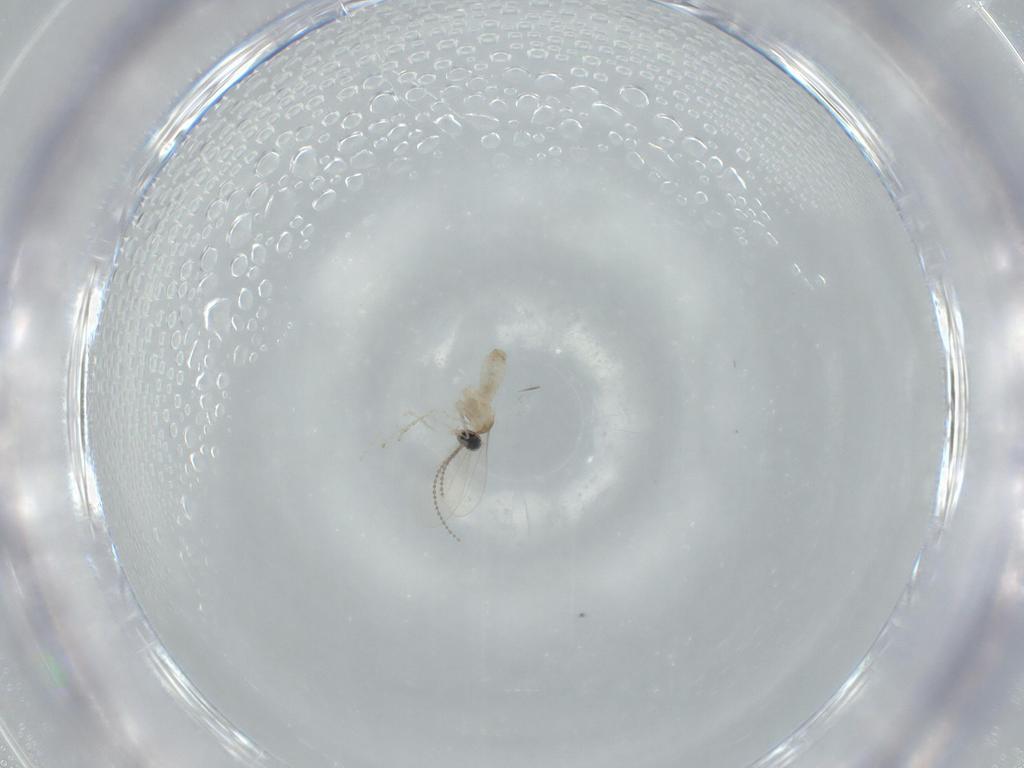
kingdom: Animalia
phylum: Arthropoda
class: Insecta
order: Diptera
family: Cecidomyiidae
